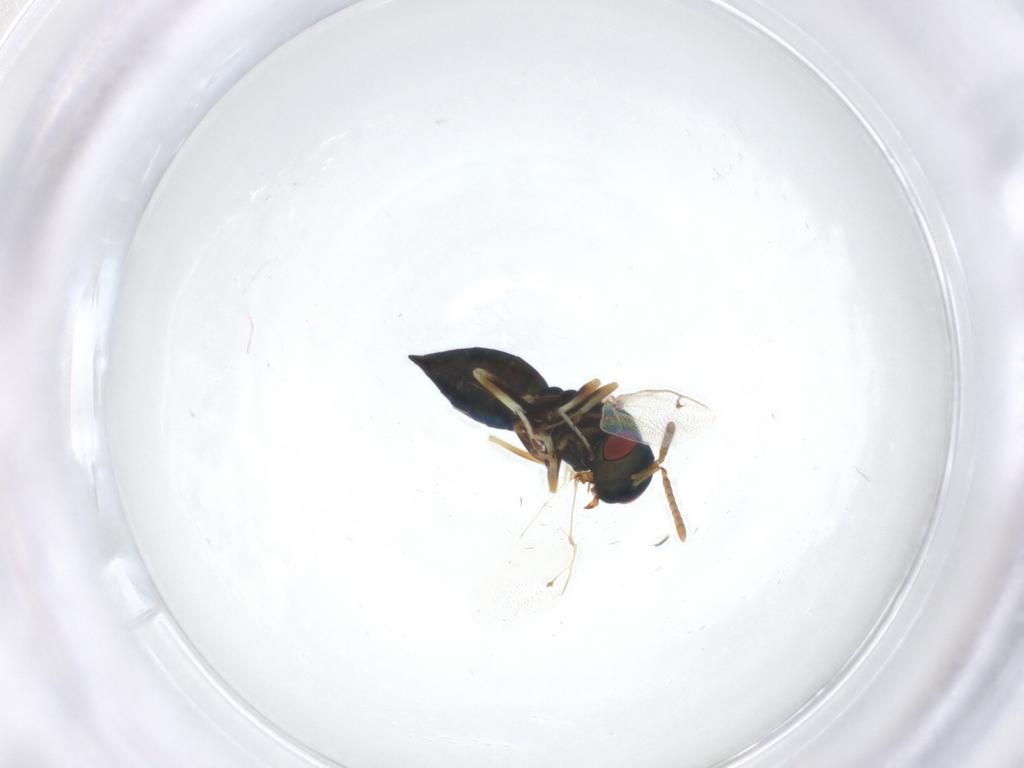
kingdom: Animalia
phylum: Arthropoda
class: Insecta
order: Hymenoptera
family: Pteromalidae
